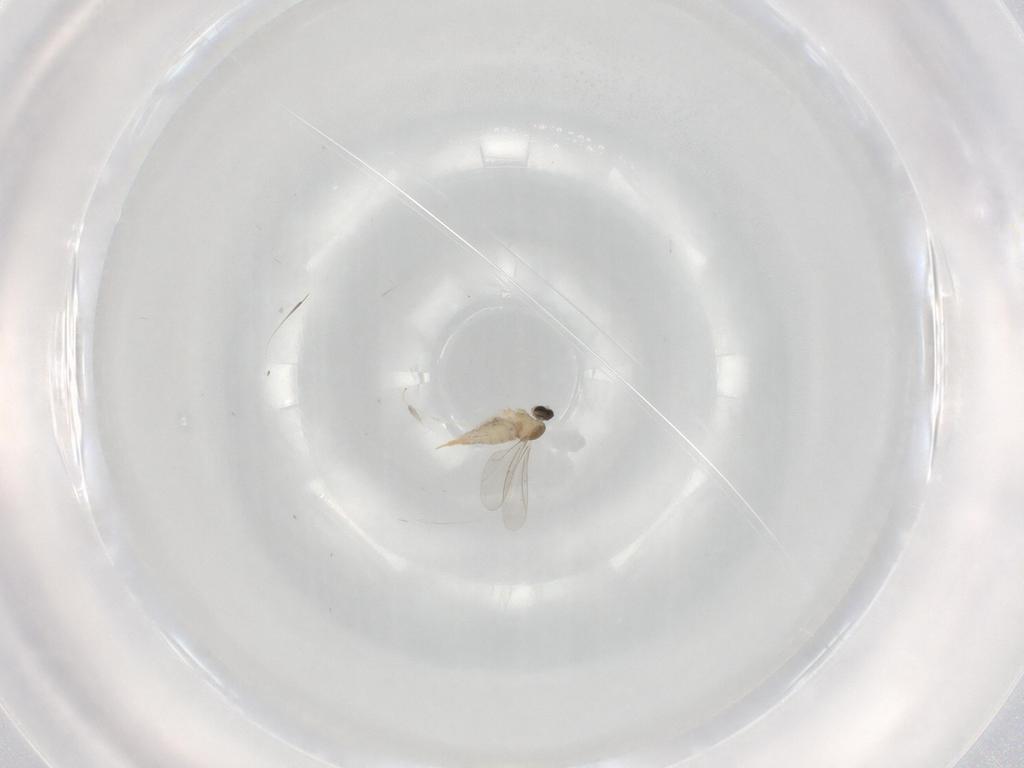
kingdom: Animalia
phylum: Arthropoda
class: Insecta
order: Diptera
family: Cecidomyiidae
